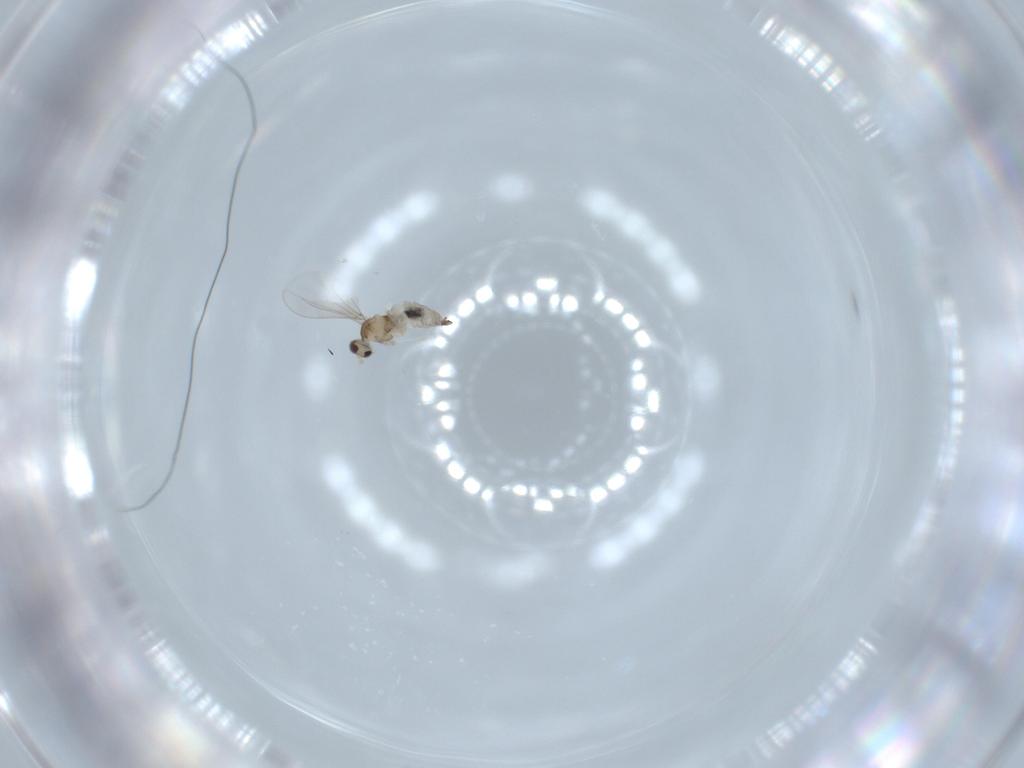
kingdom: Animalia
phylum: Arthropoda
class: Insecta
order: Diptera
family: Cecidomyiidae
